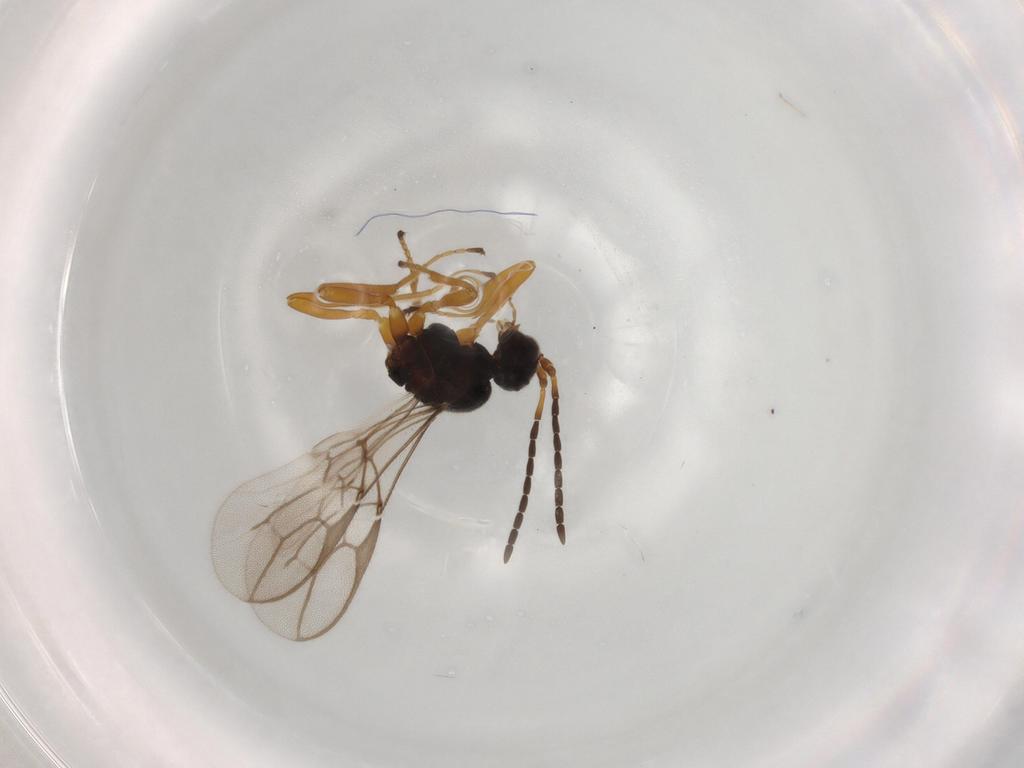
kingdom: Animalia
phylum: Arthropoda
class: Insecta
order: Hymenoptera
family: Braconidae
